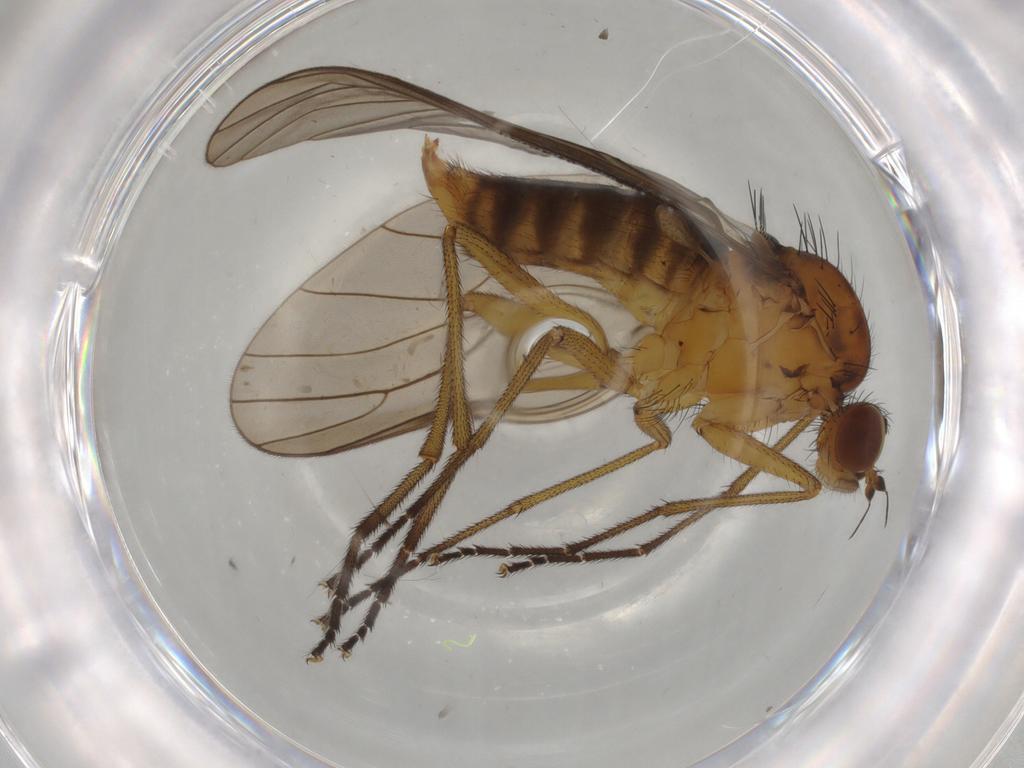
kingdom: Animalia
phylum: Arthropoda
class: Insecta
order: Diptera
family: Brachystomatidae
